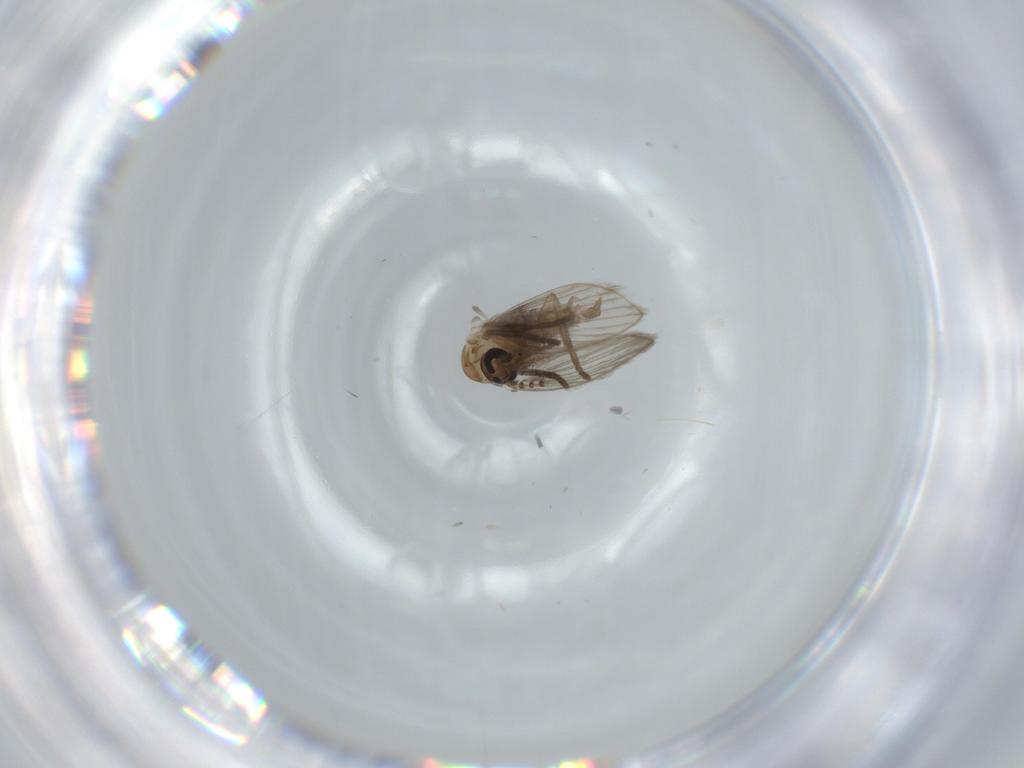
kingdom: Animalia
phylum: Arthropoda
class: Insecta
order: Diptera
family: Psychodidae
